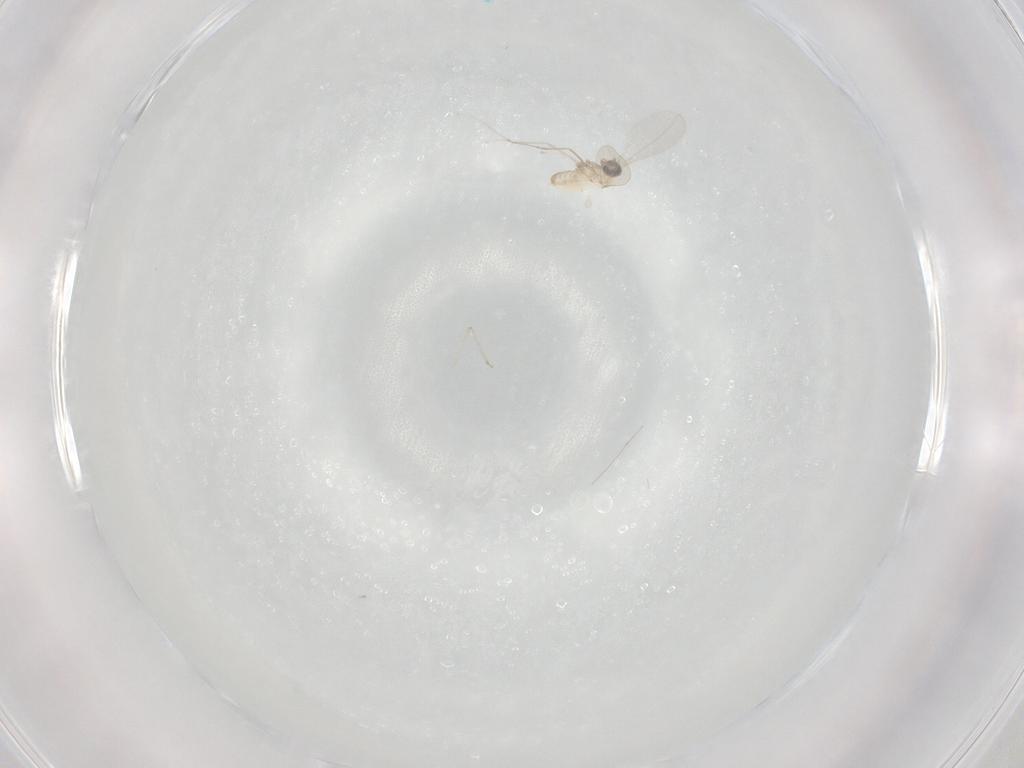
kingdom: Animalia
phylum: Arthropoda
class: Insecta
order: Diptera
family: Cecidomyiidae
